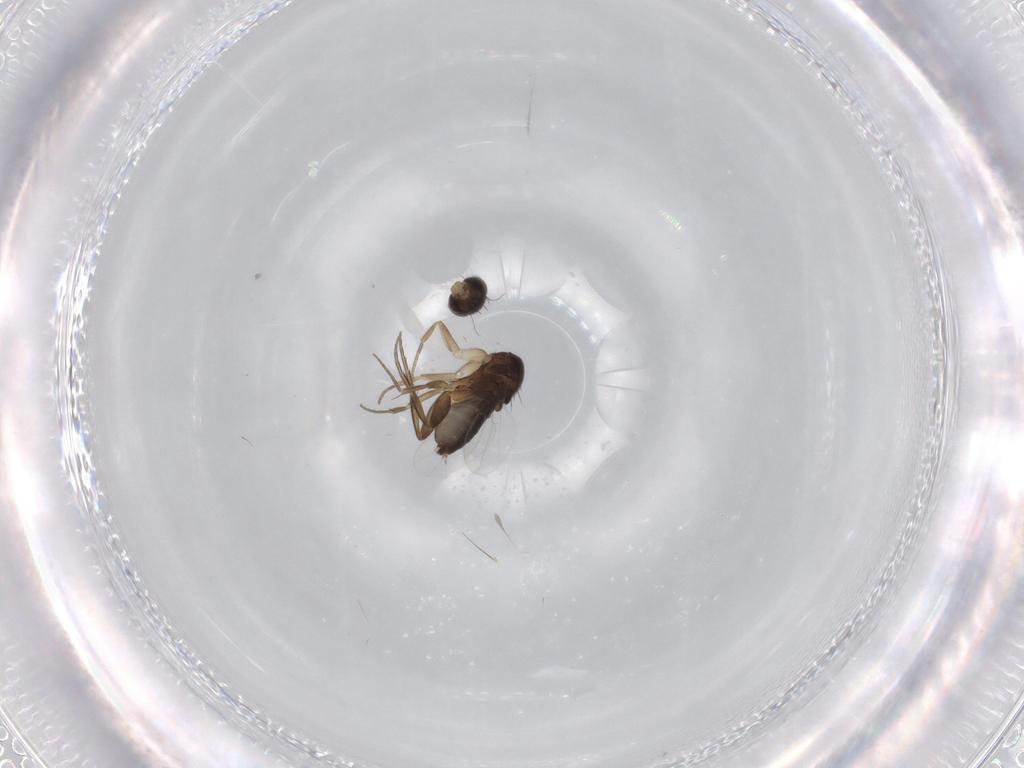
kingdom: Animalia
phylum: Arthropoda
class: Insecta
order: Diptera
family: Phoridae
